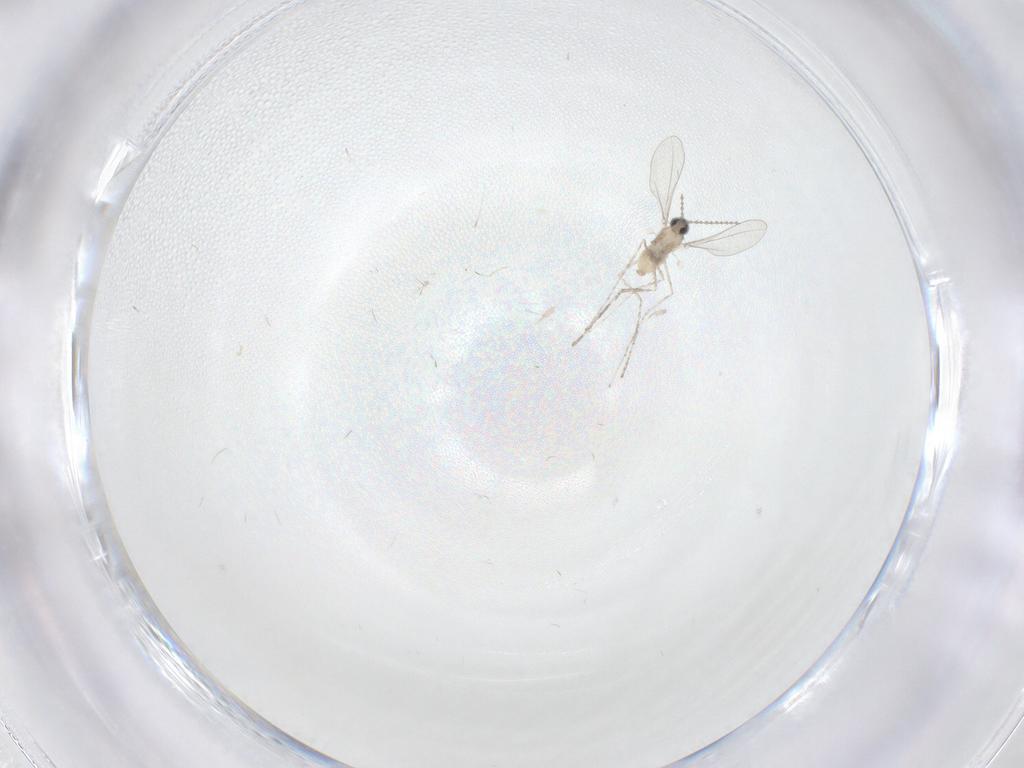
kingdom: Animalia
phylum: Arthropoda
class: Insecta
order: Diptera
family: Cecidomyiidae
